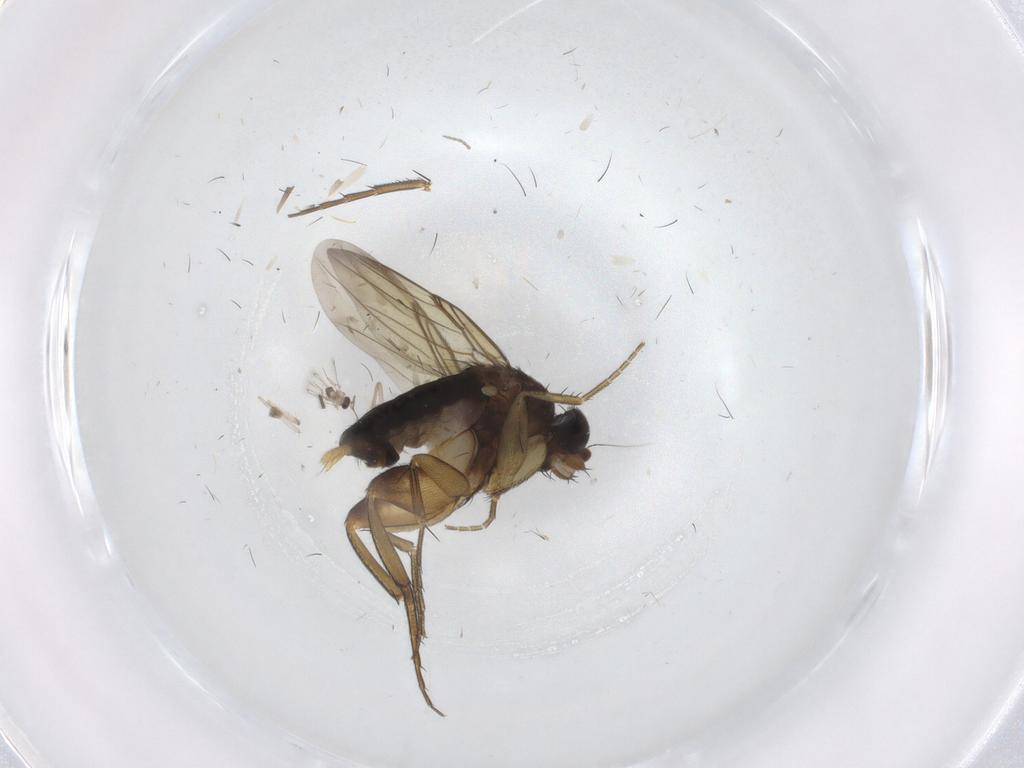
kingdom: Animalia
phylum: Arthropoda
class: Insecta
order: Diptera
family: Phoridae
